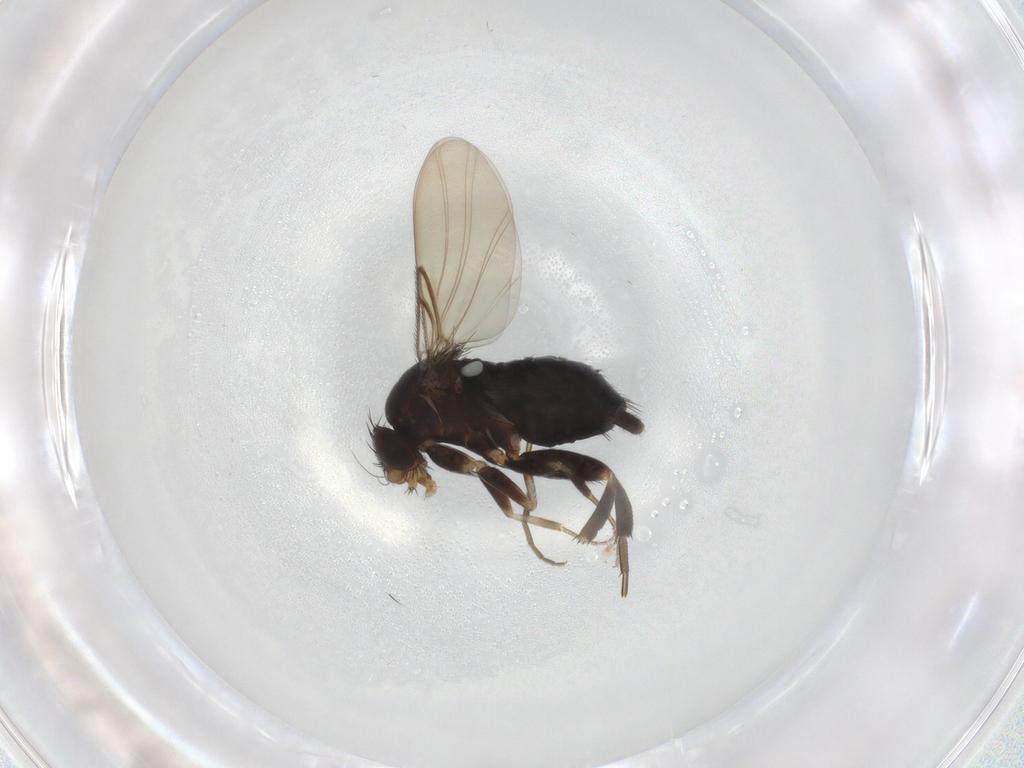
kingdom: Animalia
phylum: Arthropoda
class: Insecta
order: Diptera
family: Phoridae
